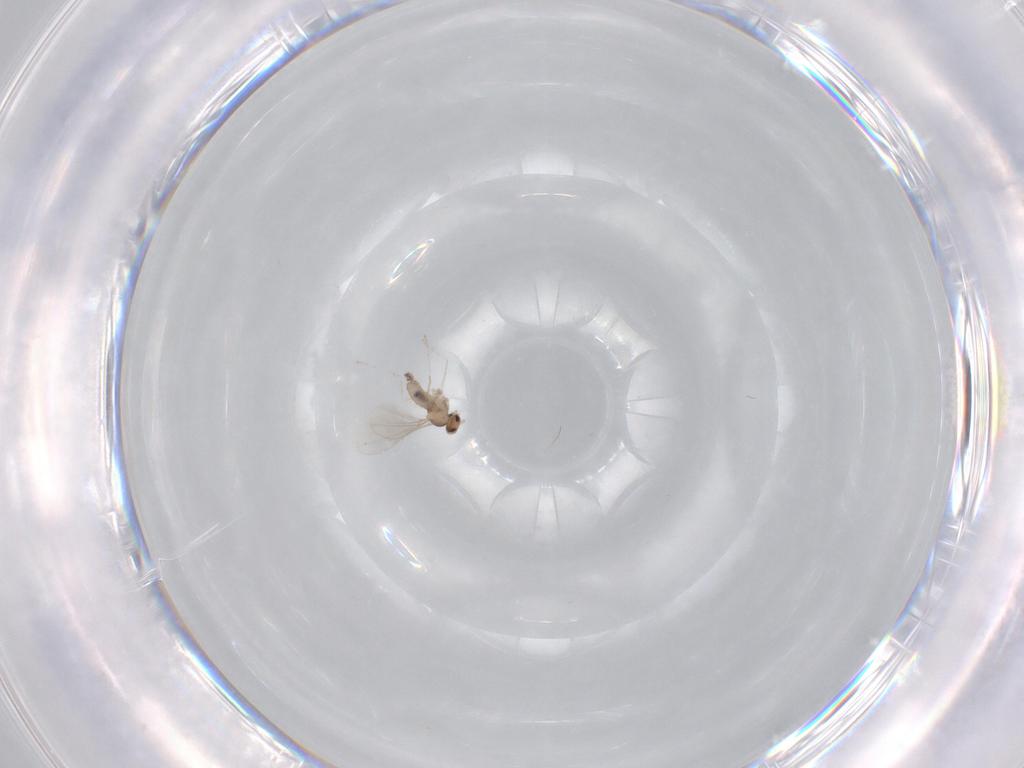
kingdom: Animalia
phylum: Arthropoda
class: Insecta
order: Diptera
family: Cecidomyiidae
